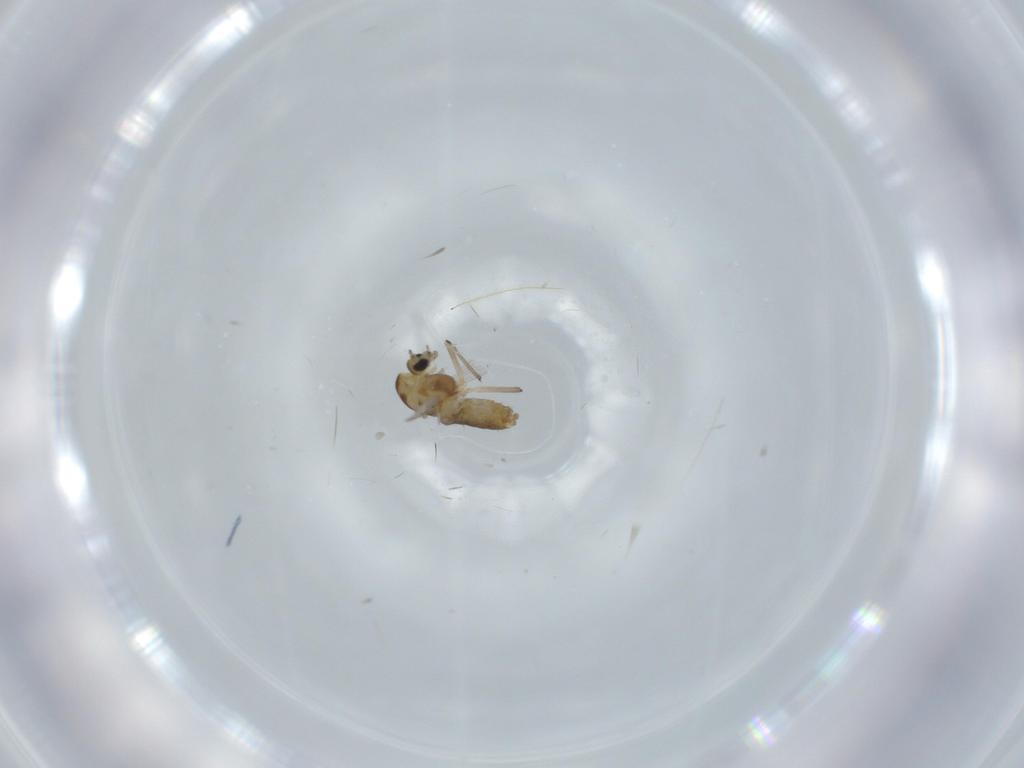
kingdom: Animalia
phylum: Arthropoda
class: Insecta
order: Diptera
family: Chironomidae
